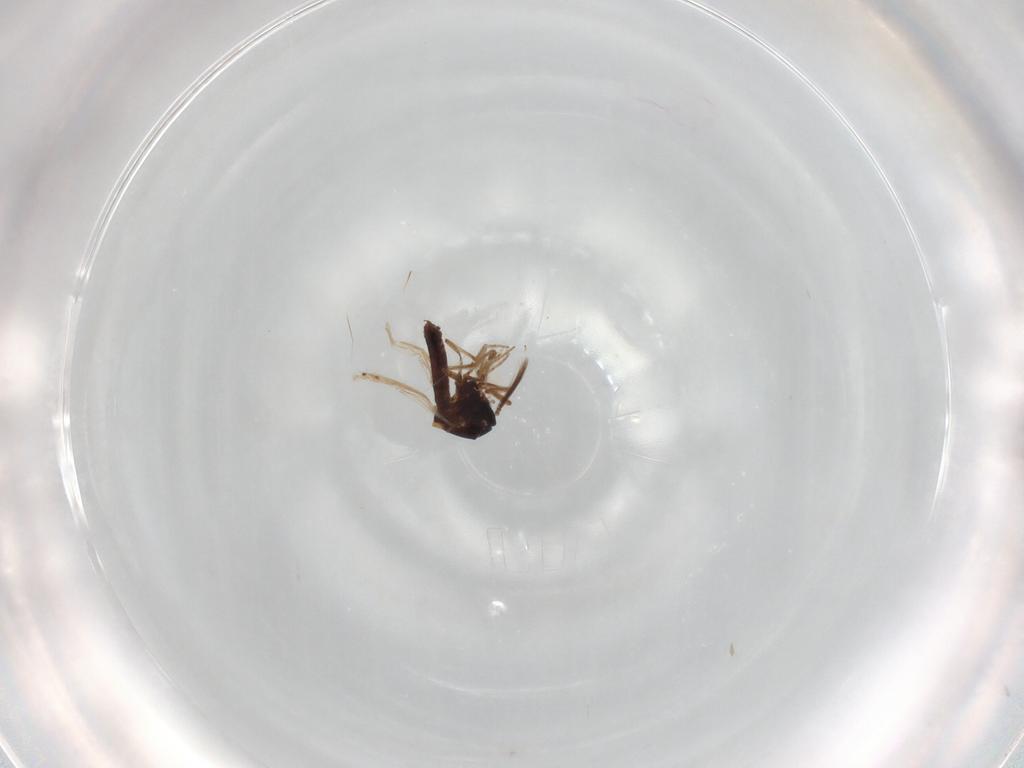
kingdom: Animalia
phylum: Arthropoda
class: Insecta
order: Diptera
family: Chloropidae
